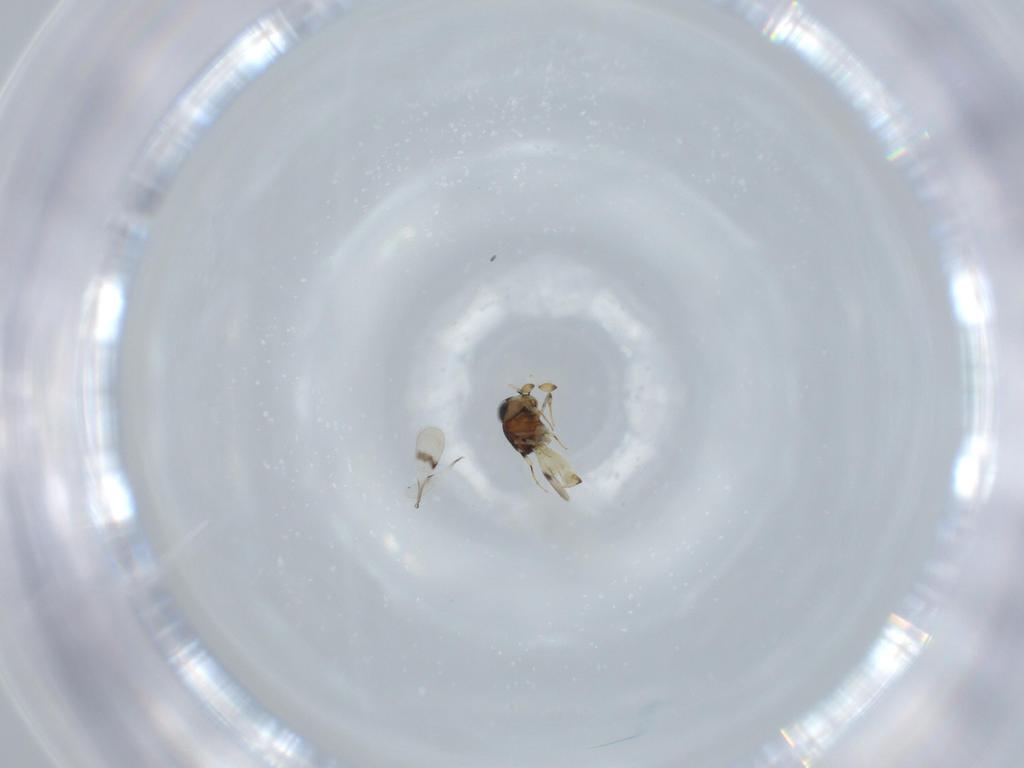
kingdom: Animalia
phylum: Arthropoda
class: Insecta
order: Hymenoptera
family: Scelionidae
